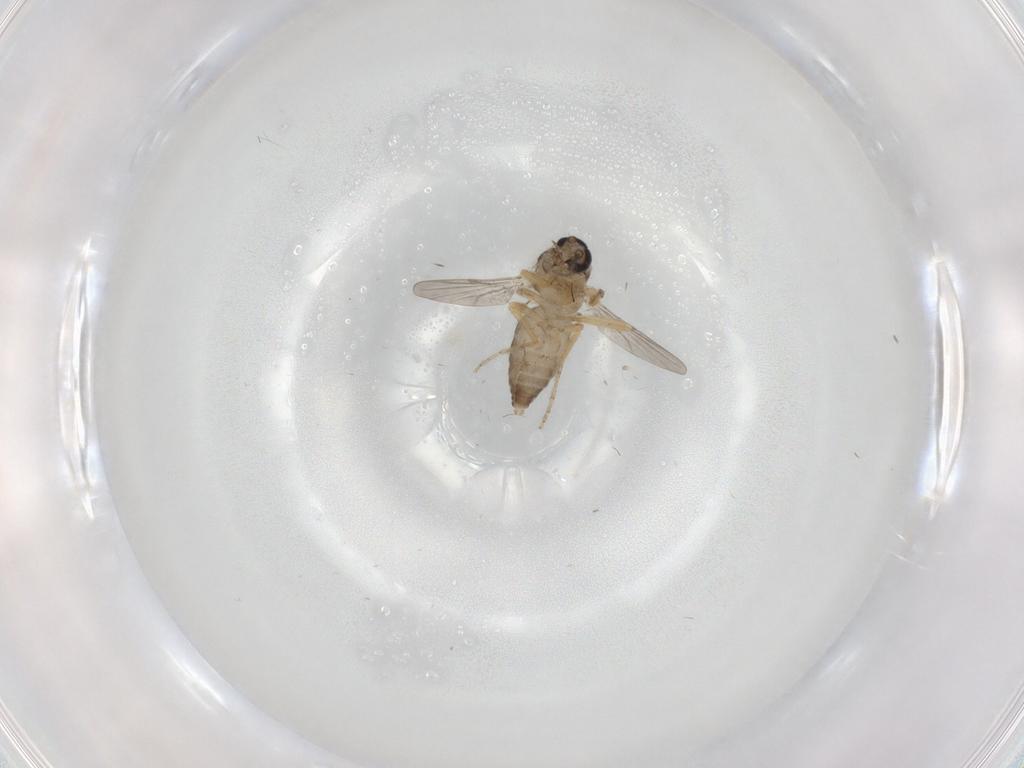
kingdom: Animalia
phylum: Arthropoda
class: Insecta
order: Diptera
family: Ceratopogonidae
